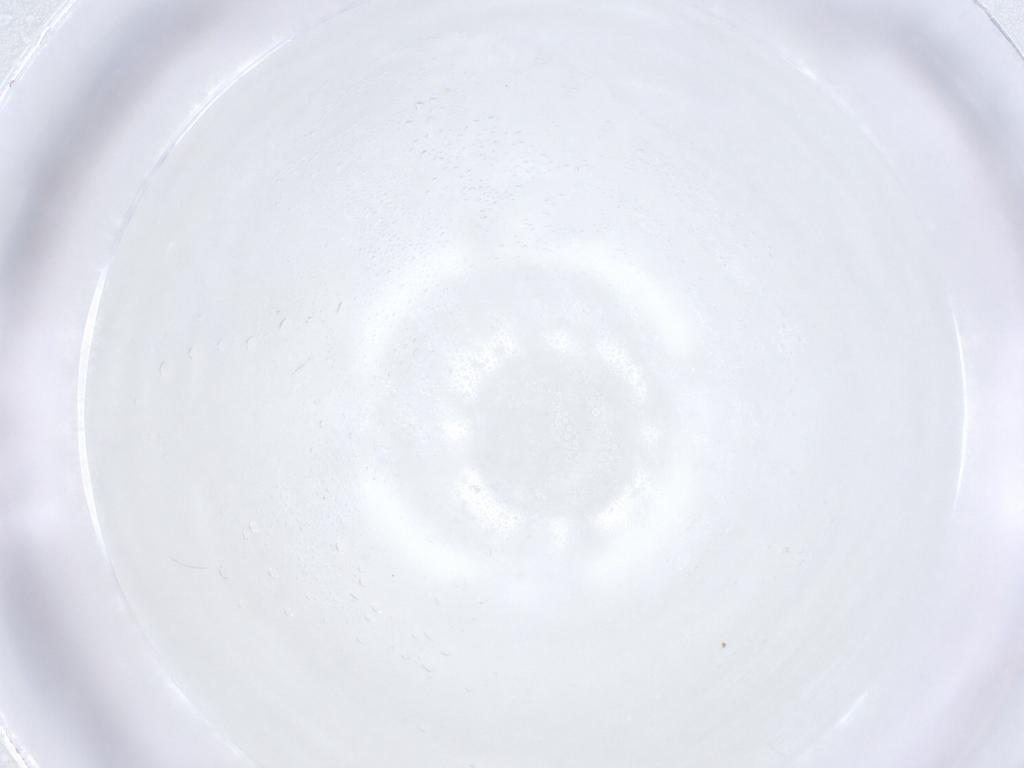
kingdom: Animalia
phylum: Arthropoda
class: Collembola
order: Symphypleona
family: Katiannidae
